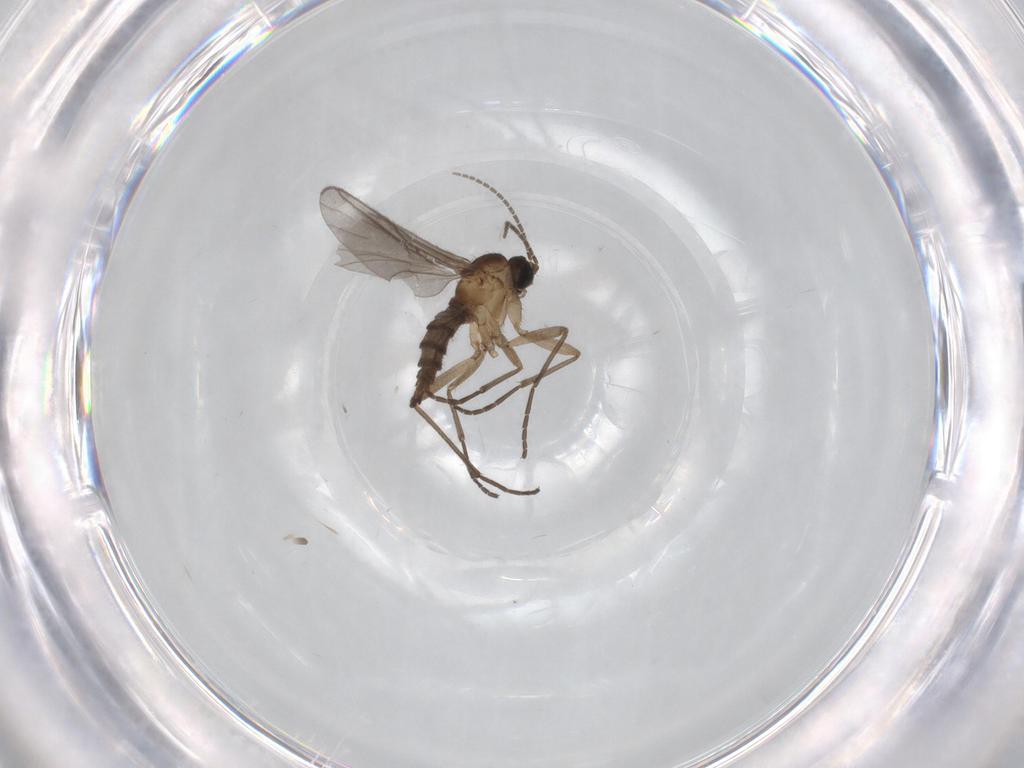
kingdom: Animalia
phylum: Arthropoda
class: Insecta
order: Diptera
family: Sciaridae
